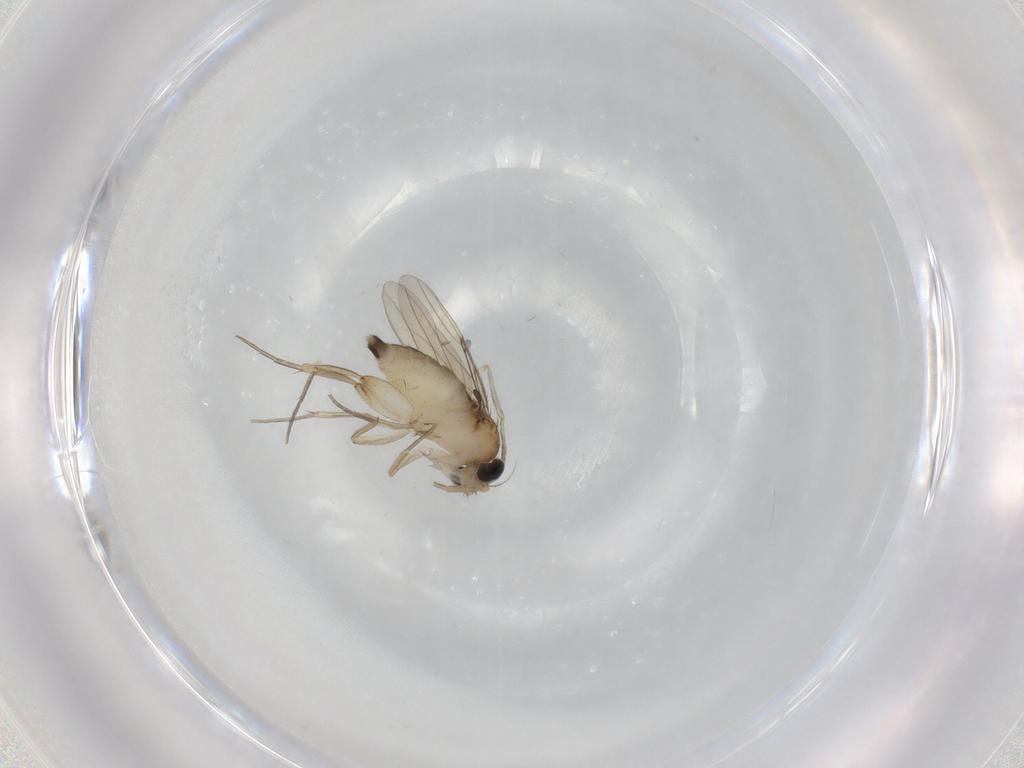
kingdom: Animalia
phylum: Arthropoda
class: Insecta
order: Diptera
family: Phoridae
